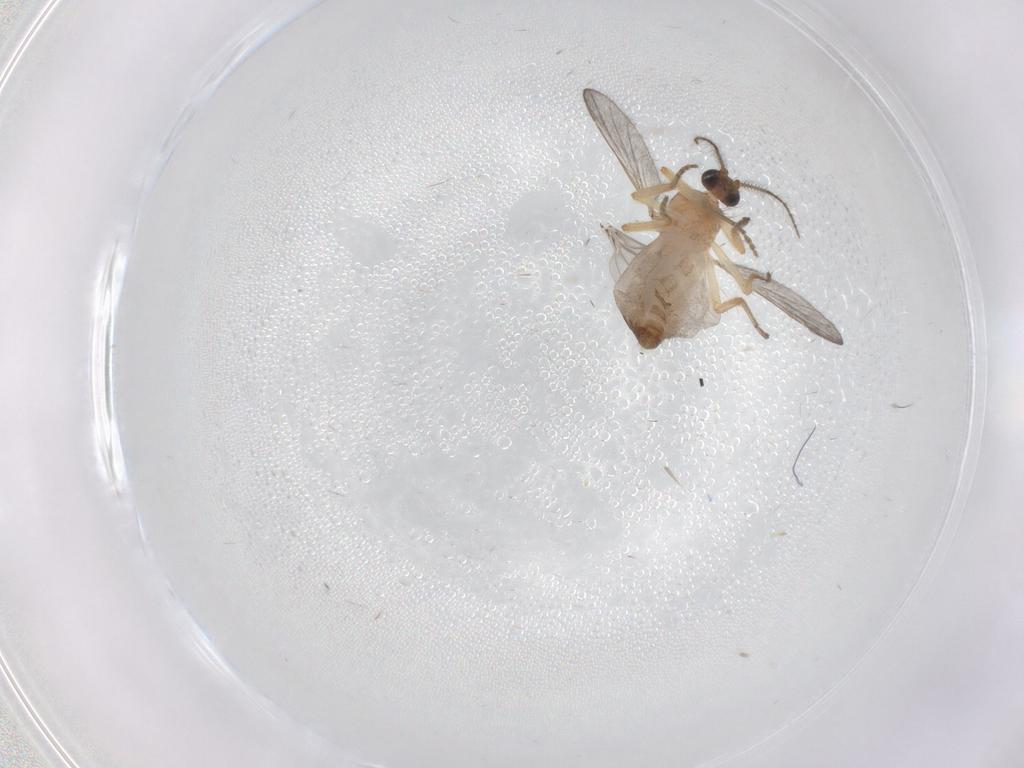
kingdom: Animalia
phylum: Arthropoda
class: Insecta
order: Diptera
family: Ceratopogonidae
